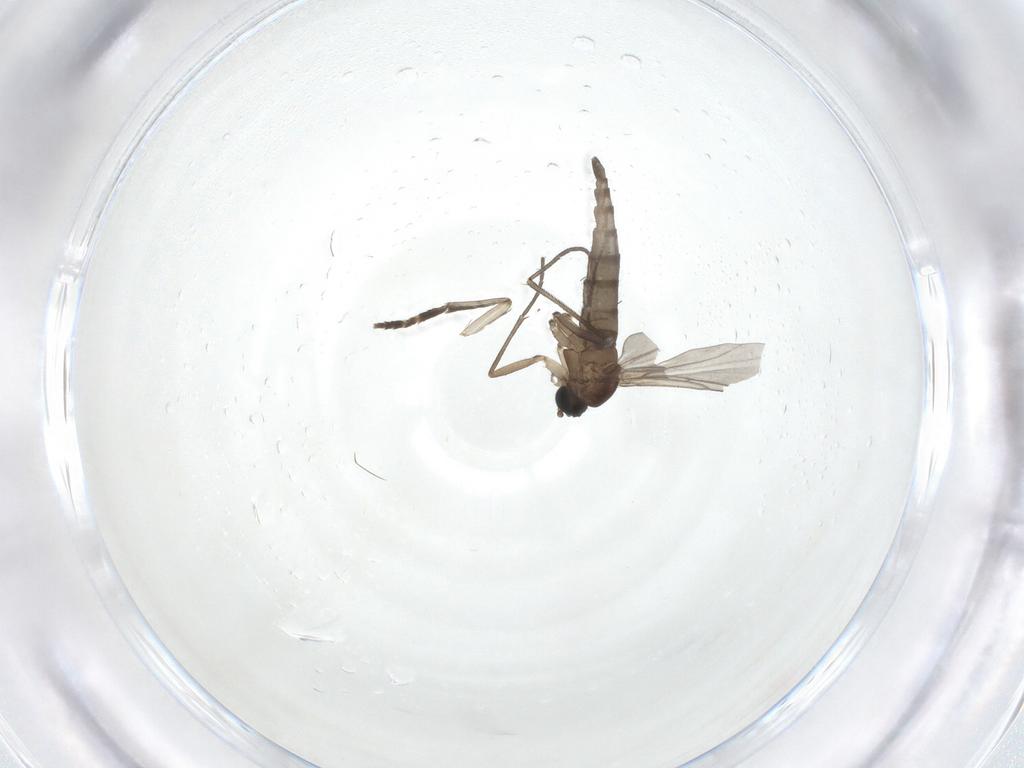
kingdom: Animalia
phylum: Arthropoda
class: Insecta
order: Diptera
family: Psychodidae
